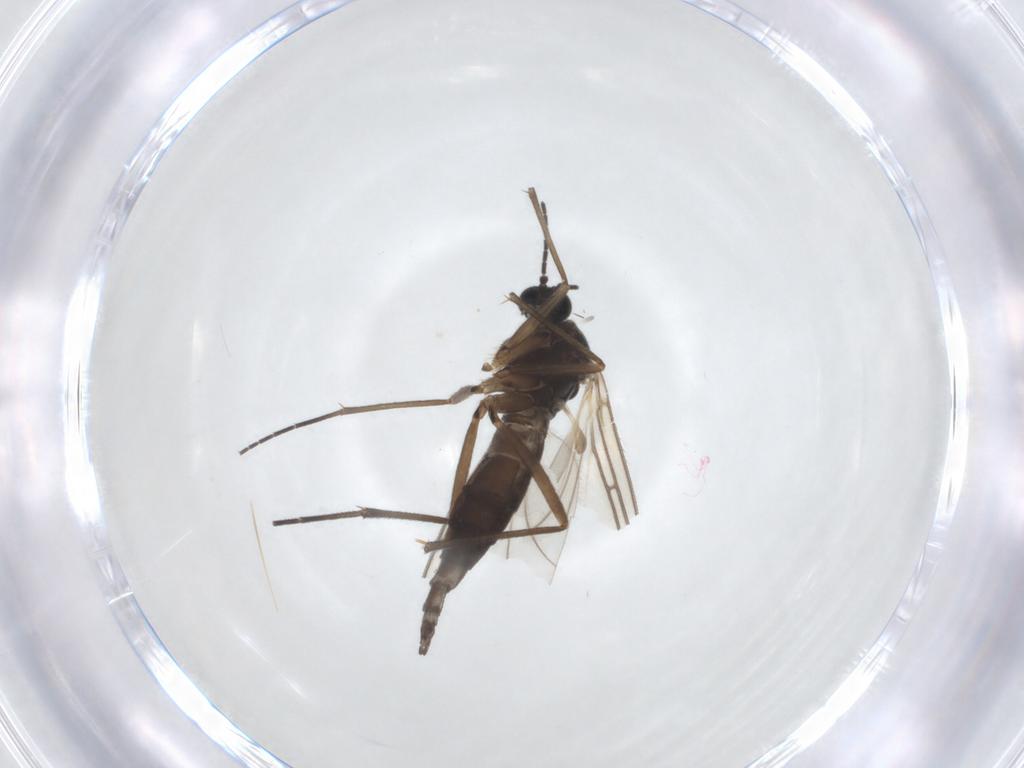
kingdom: Animalia
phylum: Arthropoda
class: Insecta
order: Diptera
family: Sciaridae
